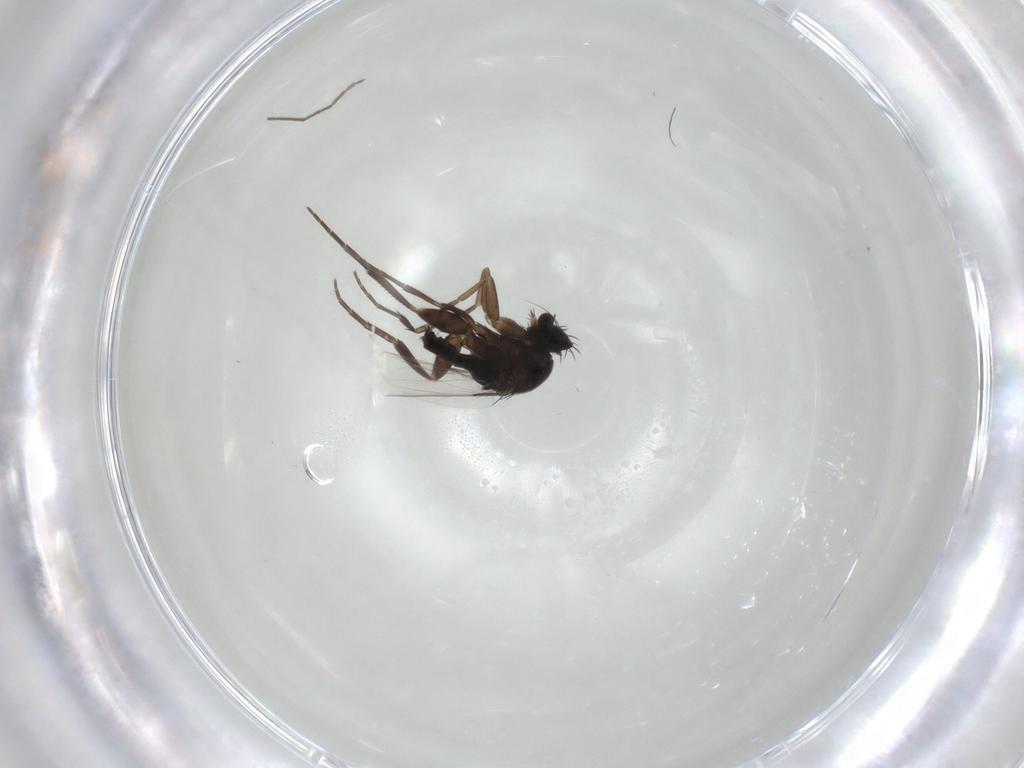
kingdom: Animalia
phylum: Arthropoda
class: Insecta
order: Diptera
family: Phoridae
